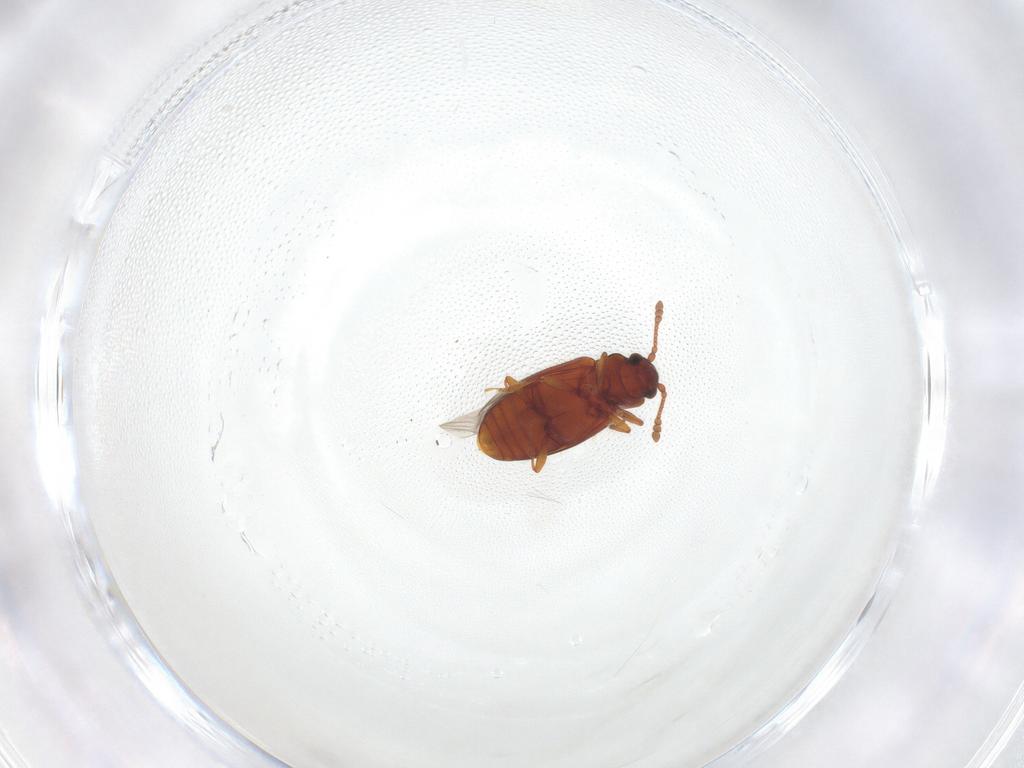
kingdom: Animalia
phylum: Arthropoda
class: Insecta
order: Coleoptera
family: Cryptophagidae
